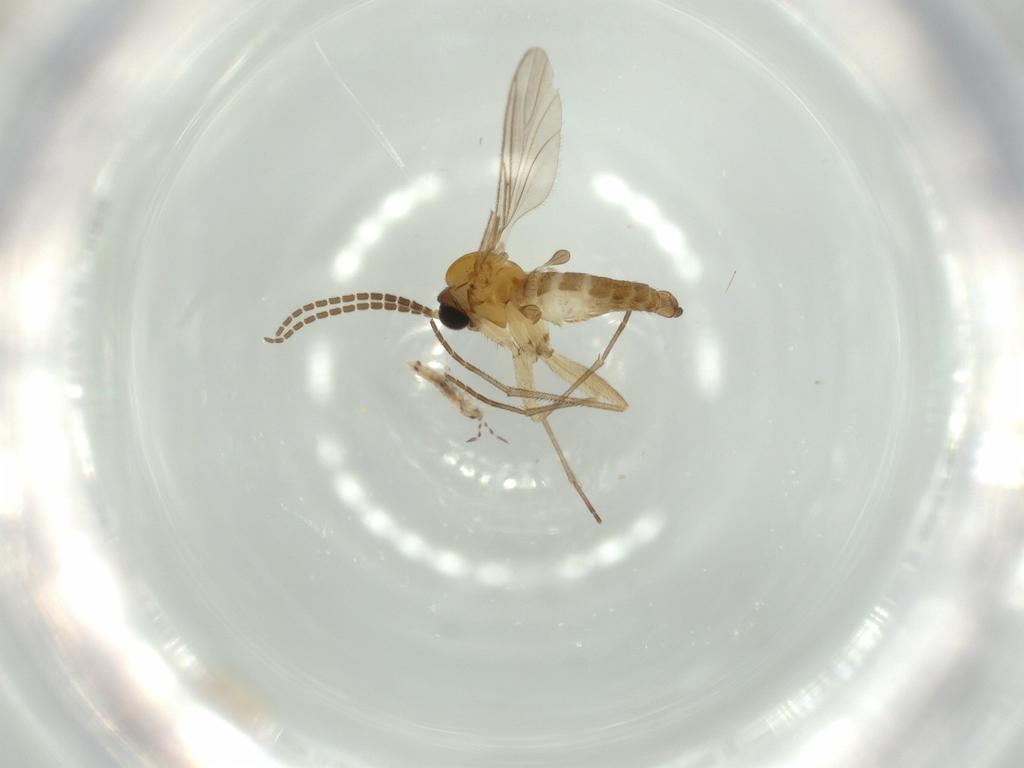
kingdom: Animalia
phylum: Arthropoda
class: Collembola
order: Entomobryomorpha
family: Entomobryidae
